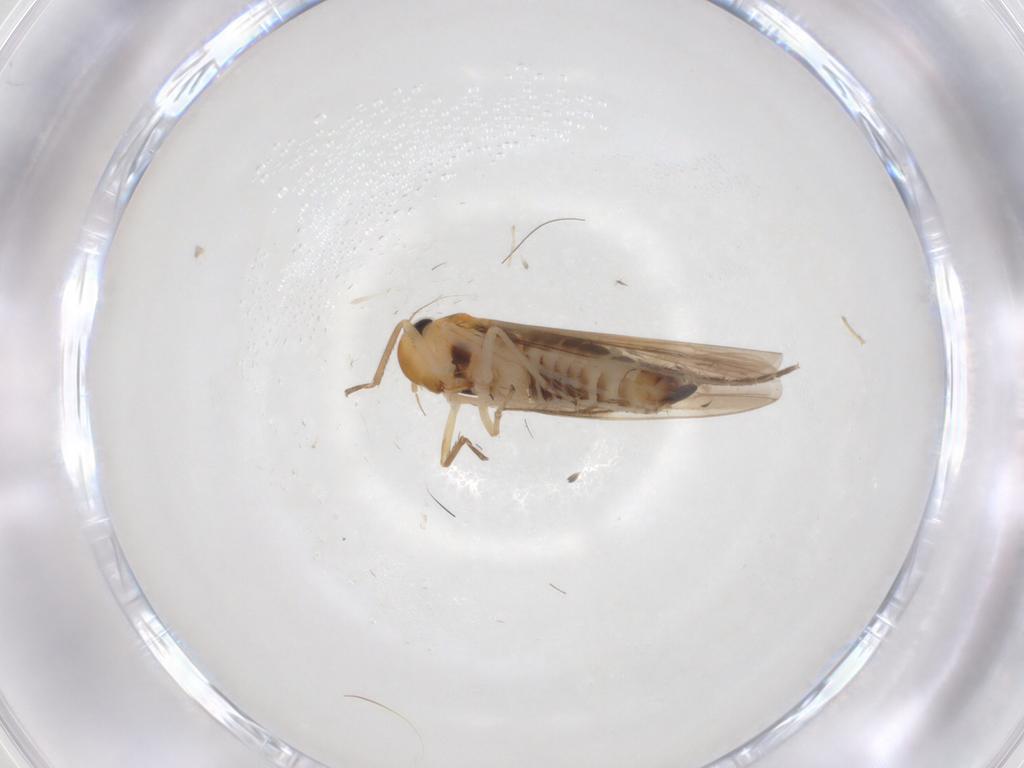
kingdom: Animalia
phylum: Arthropoda
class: Insecta
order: Hemiptera
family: Cicadellidae
